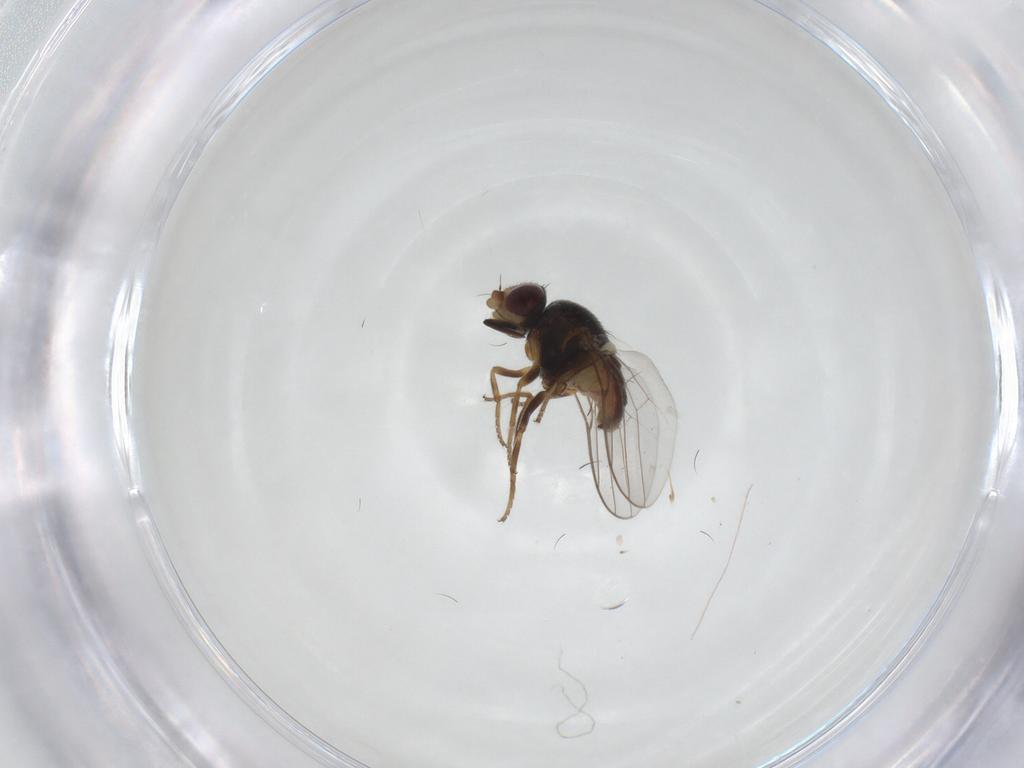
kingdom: Animalia
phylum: Arthropoda
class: Insecta
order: Diptera
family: Chloropidae
